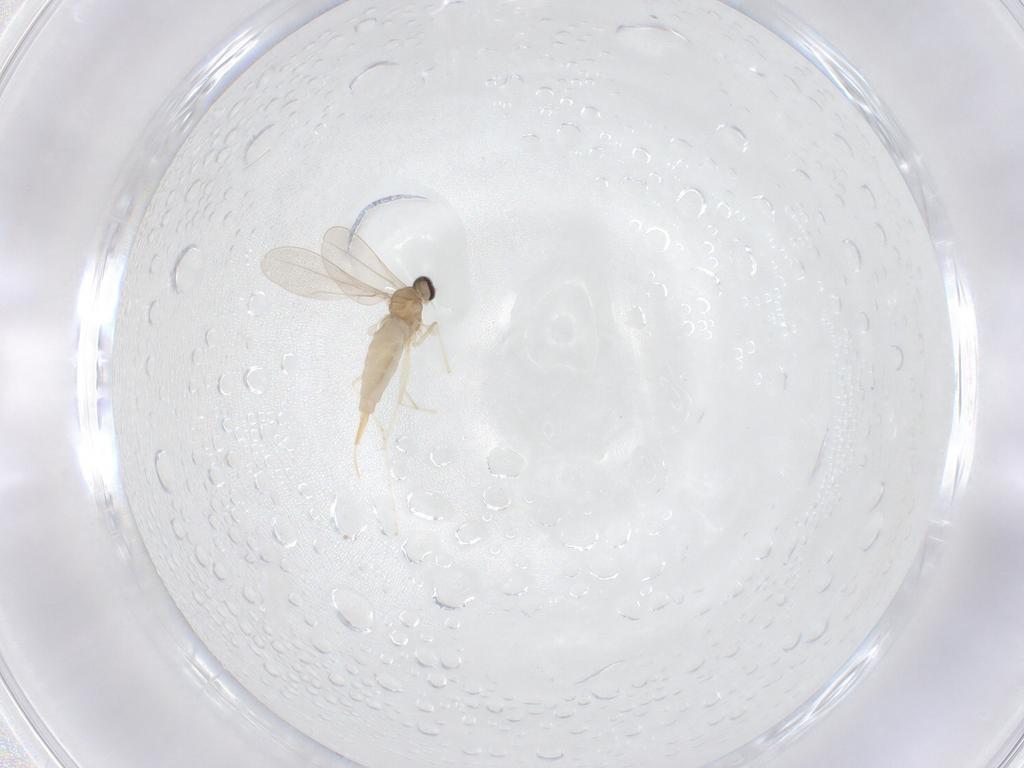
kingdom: Animalia
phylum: Arthropoda
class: Insecta
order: Diptera
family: Cecidomyiidae
